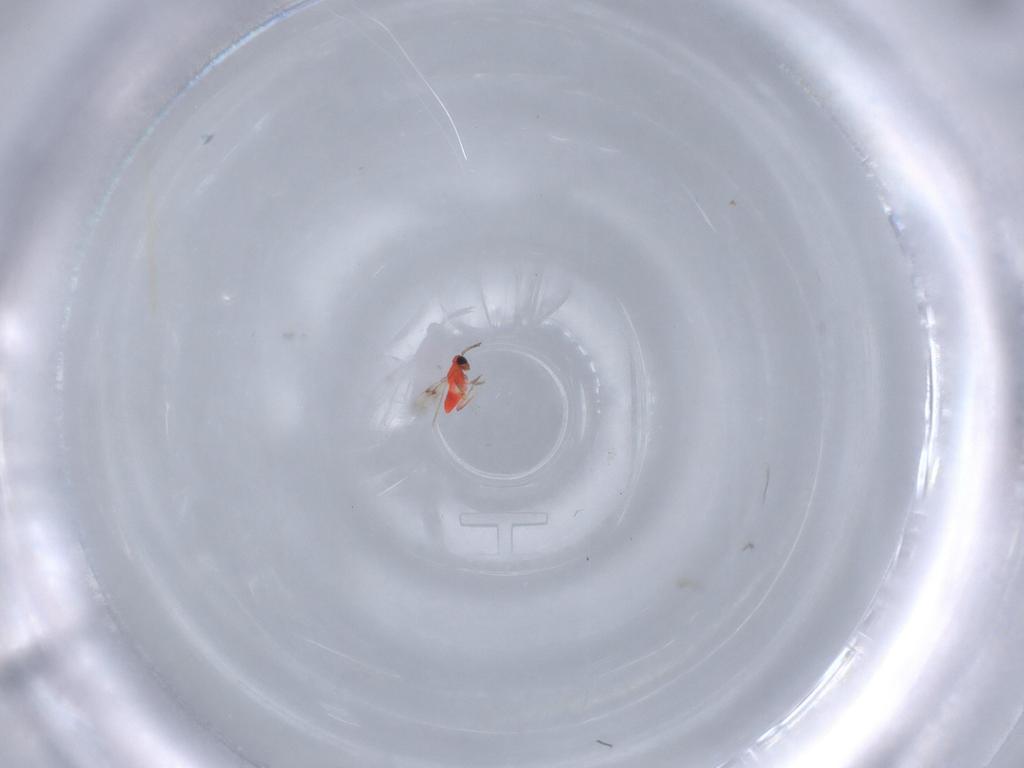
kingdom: Animalia
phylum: Arthropoda
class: Insecta
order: Hymenoptera
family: Trichogrammatidae
